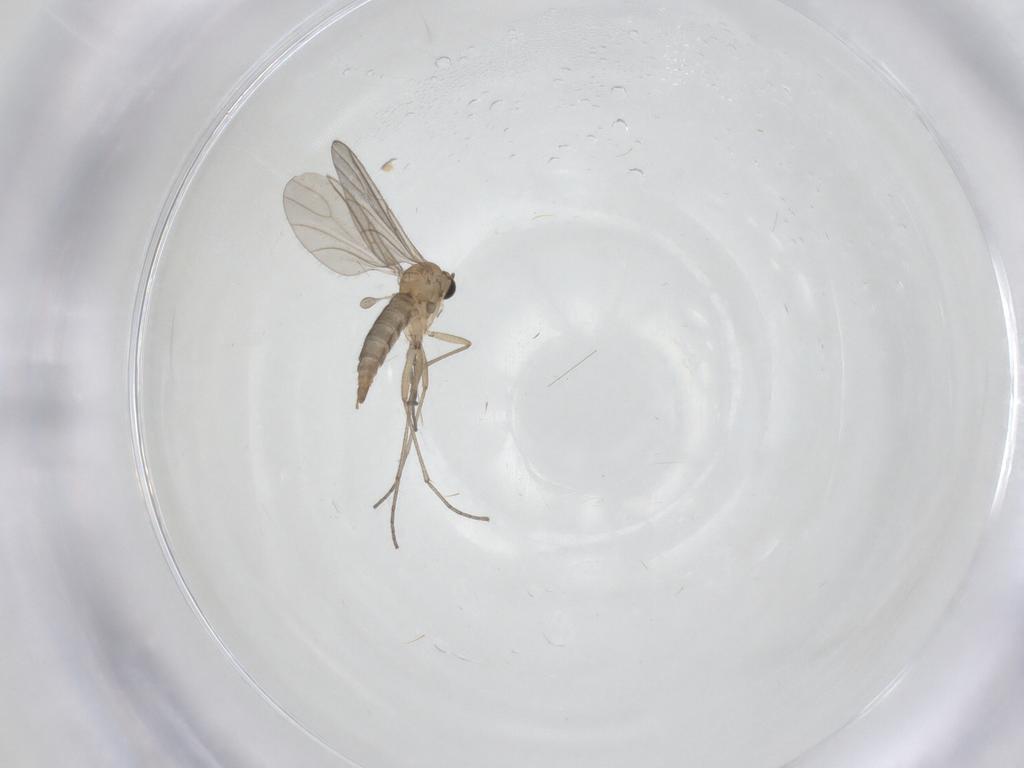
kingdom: Animalia
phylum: Arthropoda
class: Insecta
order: Diptera
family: Sciaridae
